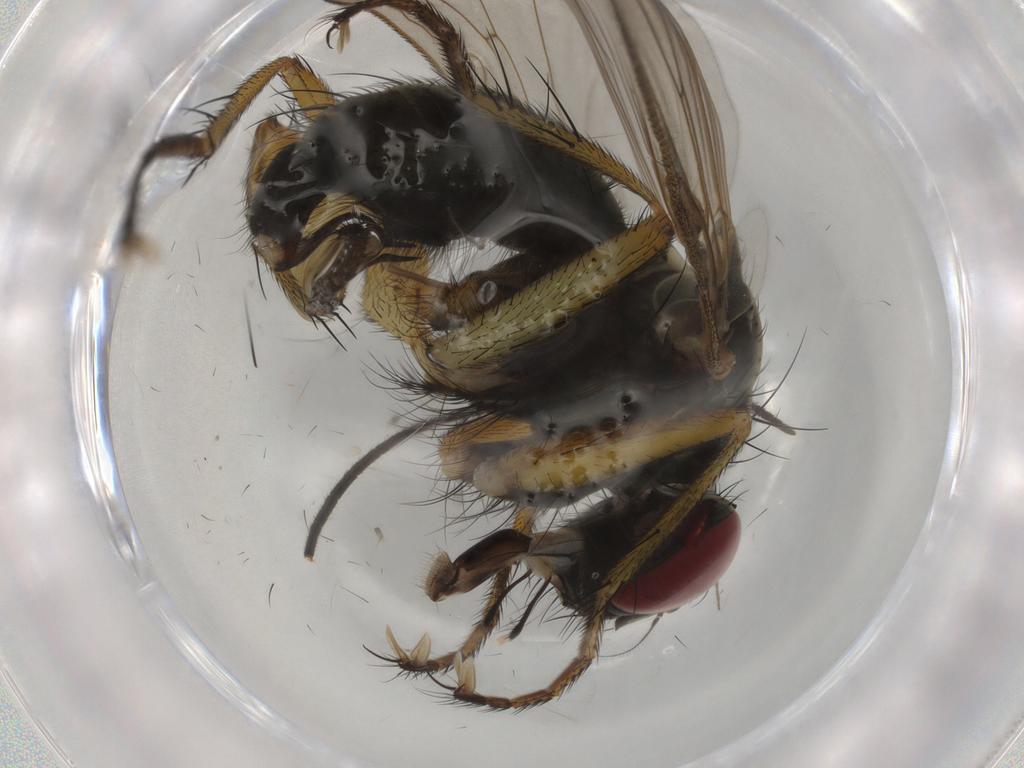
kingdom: Animalia
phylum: Arthropoda
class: Insecta
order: Diptera
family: Muscidae
